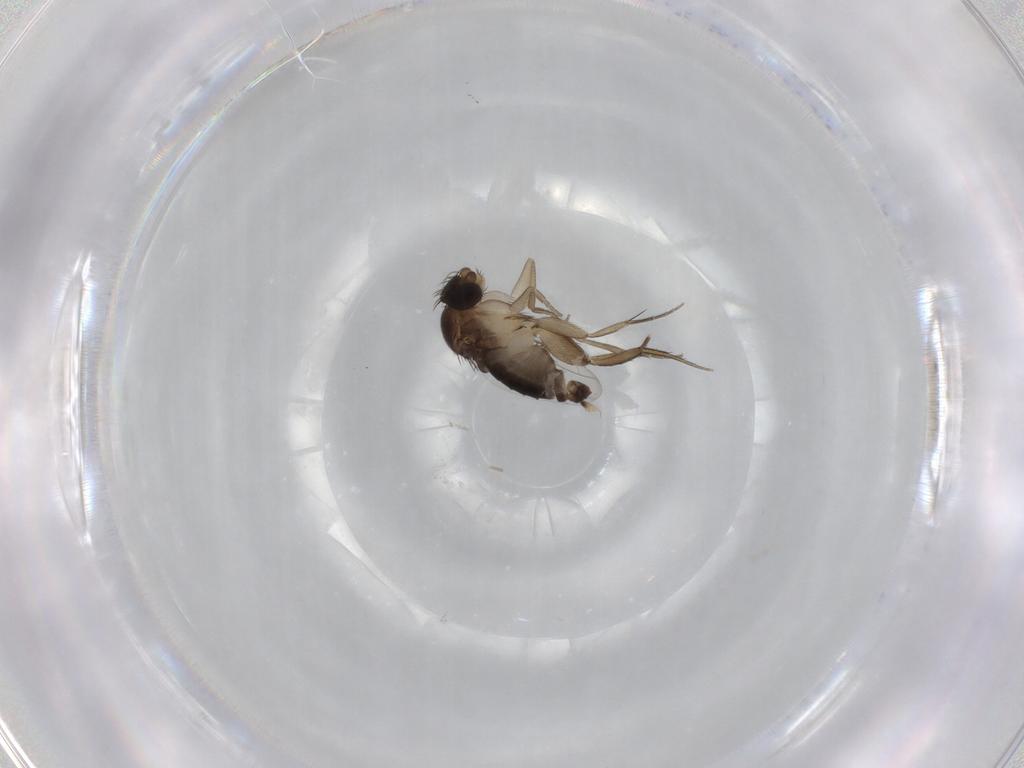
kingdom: Animalia
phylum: Arthropoda
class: Insecta
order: Diptera
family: Phoridae
